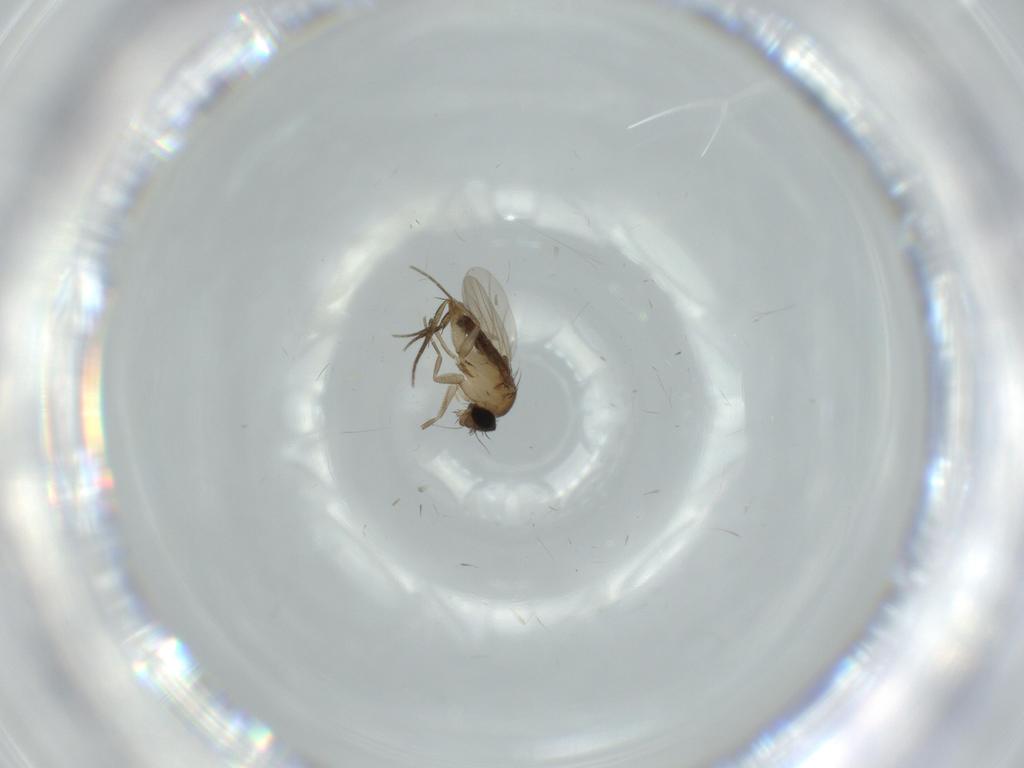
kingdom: Animalia
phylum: Arthropoda
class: Insecta
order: Diptera
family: Phoridae
